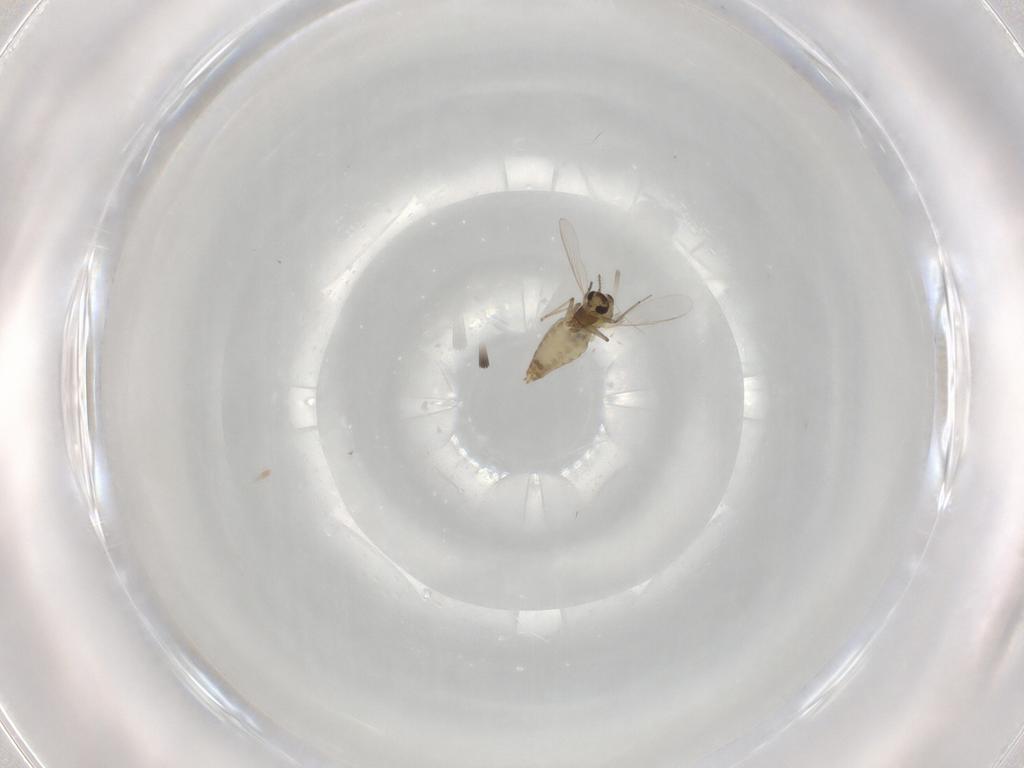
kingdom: Animalia
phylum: Arthropoda
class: Insecta
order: Diptera
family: Chironomidae
